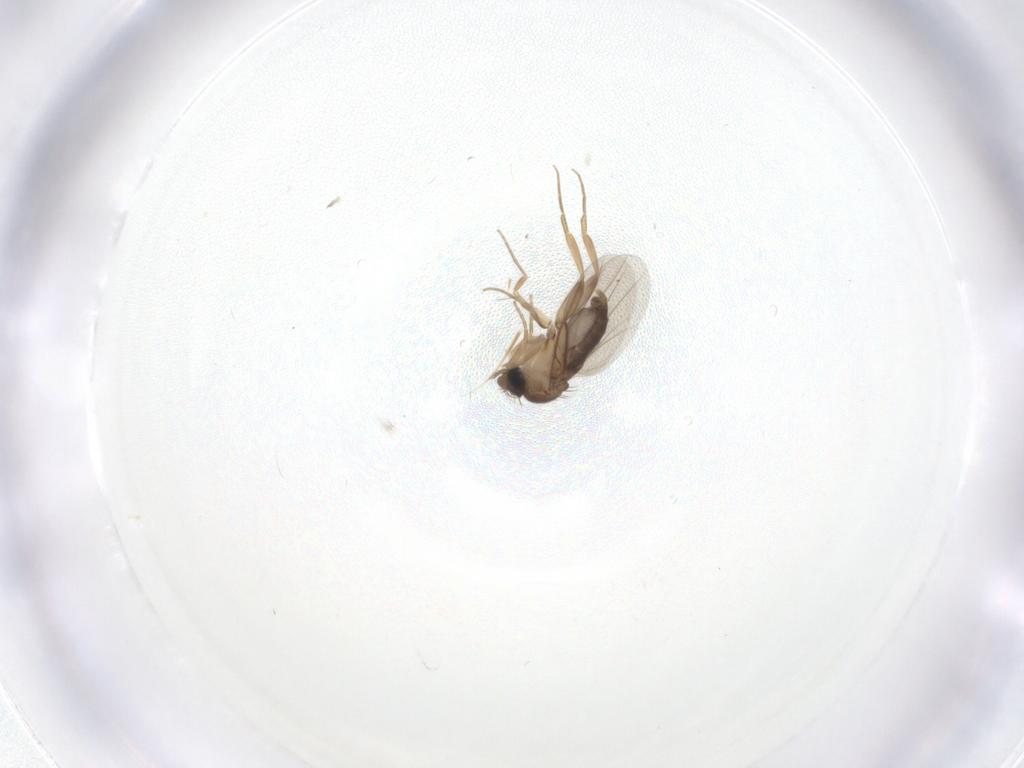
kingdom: Animalia
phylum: Arthropoda
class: Insecta
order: Diptera
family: Phoridae
